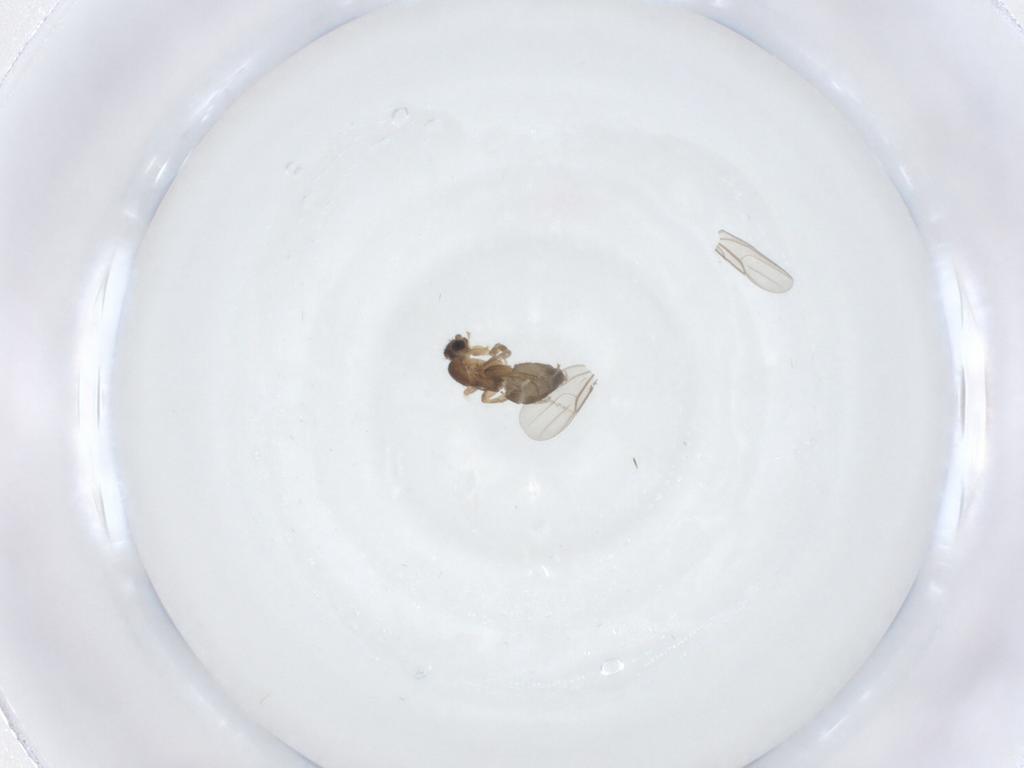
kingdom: Animalia
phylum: Arthropoda
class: Insecta
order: Diptera
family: Phoridae
